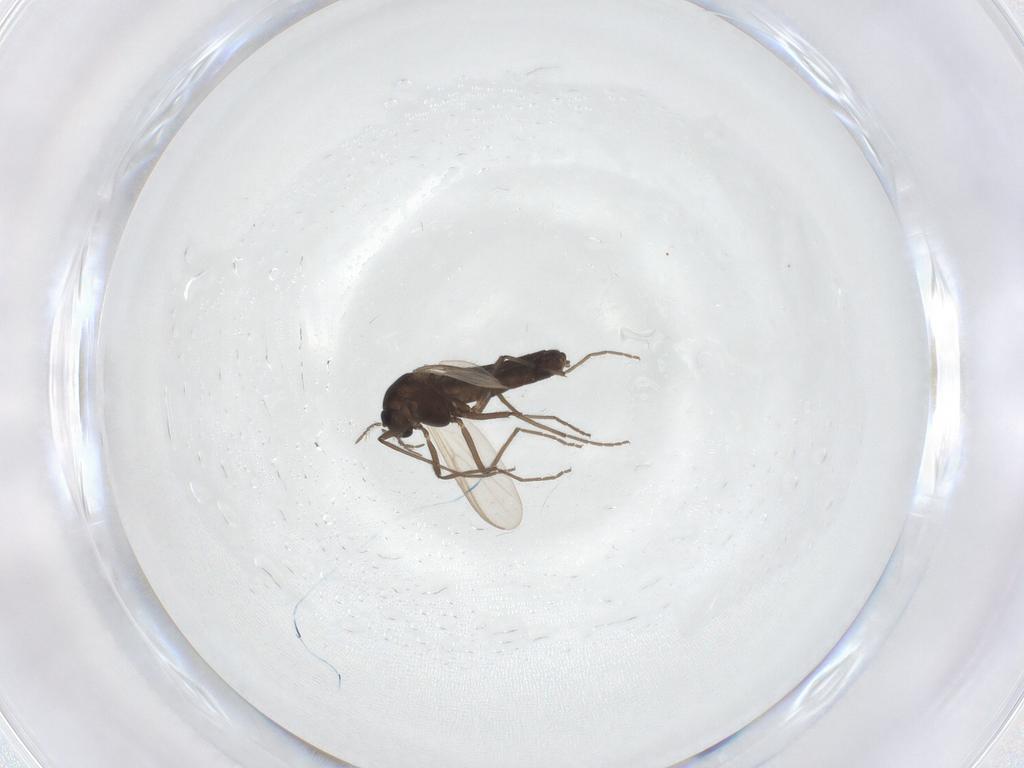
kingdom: Animalia
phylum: Arthropoda
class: Insecta
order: Diptera
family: Chironomidae
